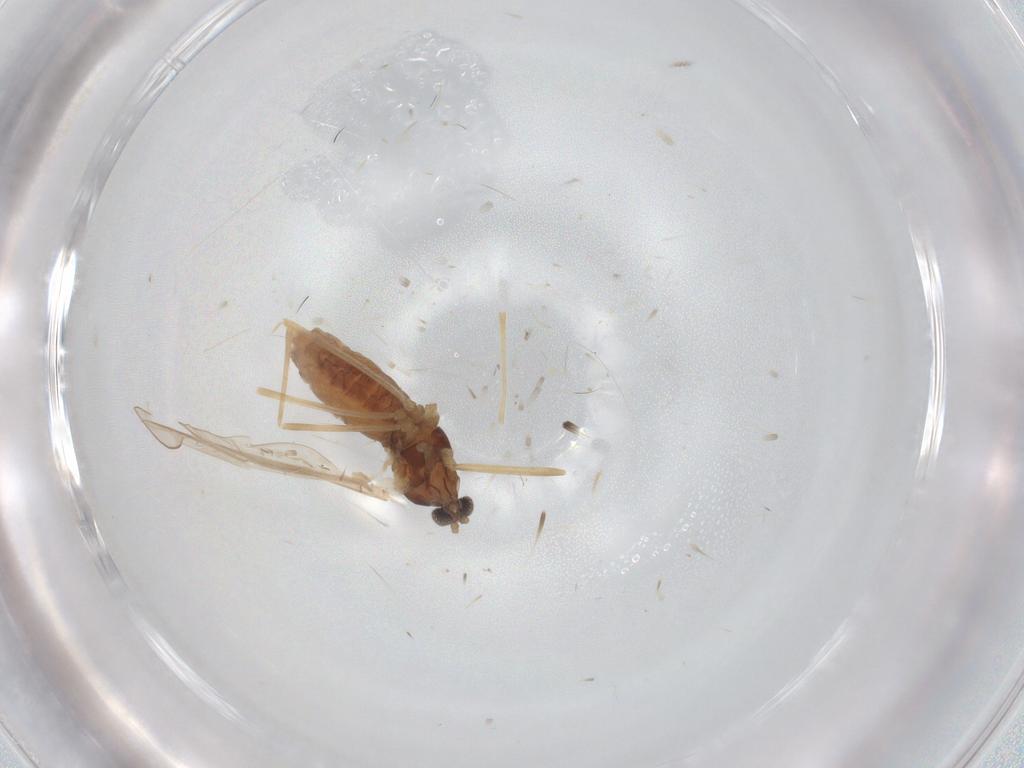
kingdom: Animalia
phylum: Arthropoda
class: Insecta
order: Diptera
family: Cecidomyiidae
